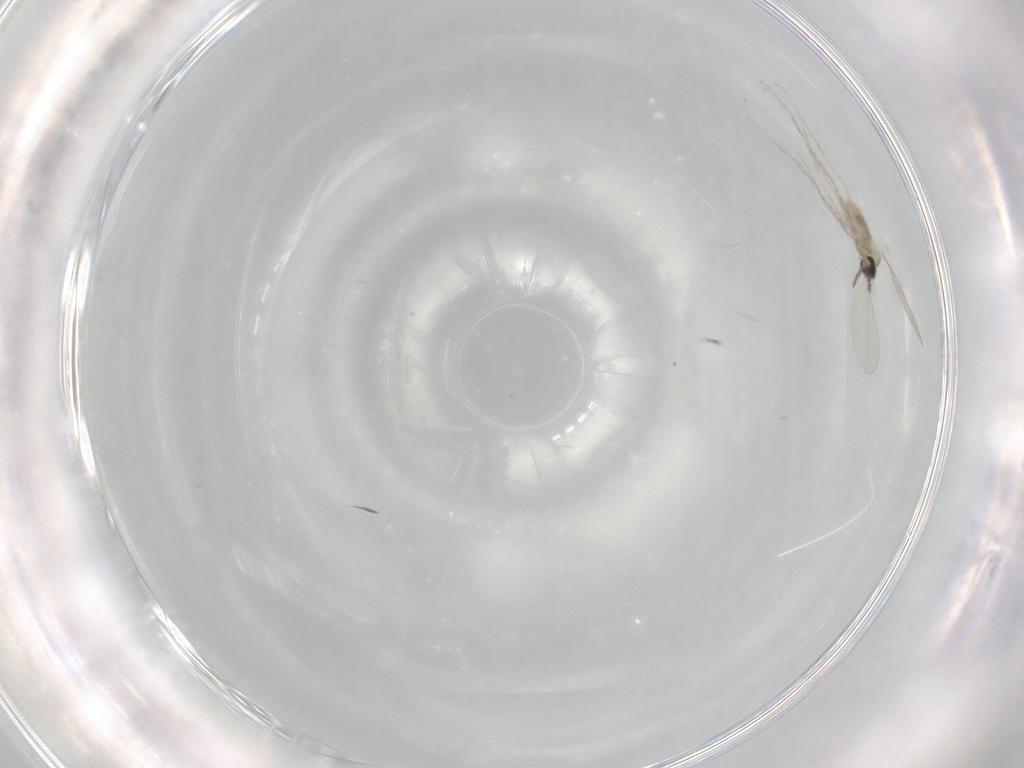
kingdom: Animalia
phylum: Arthropoda
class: Insecta
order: Diptera
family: Cecidomyiidae
